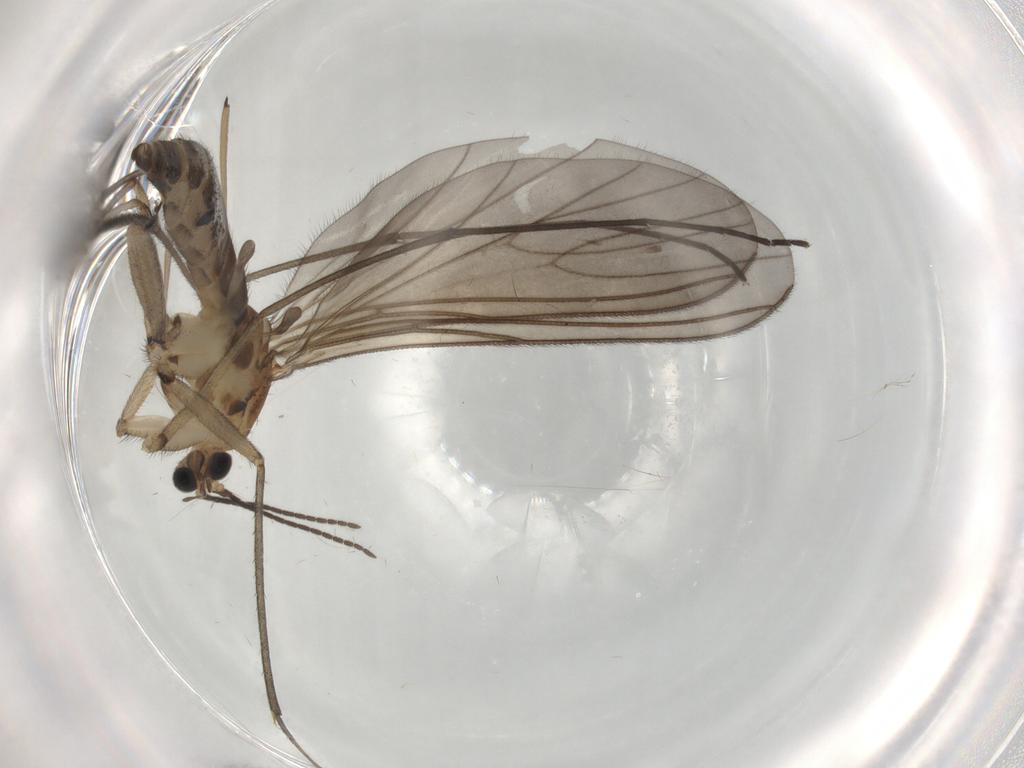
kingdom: Animalia
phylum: Arthropoda
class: Insecta
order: Diptera
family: Sciaridae
